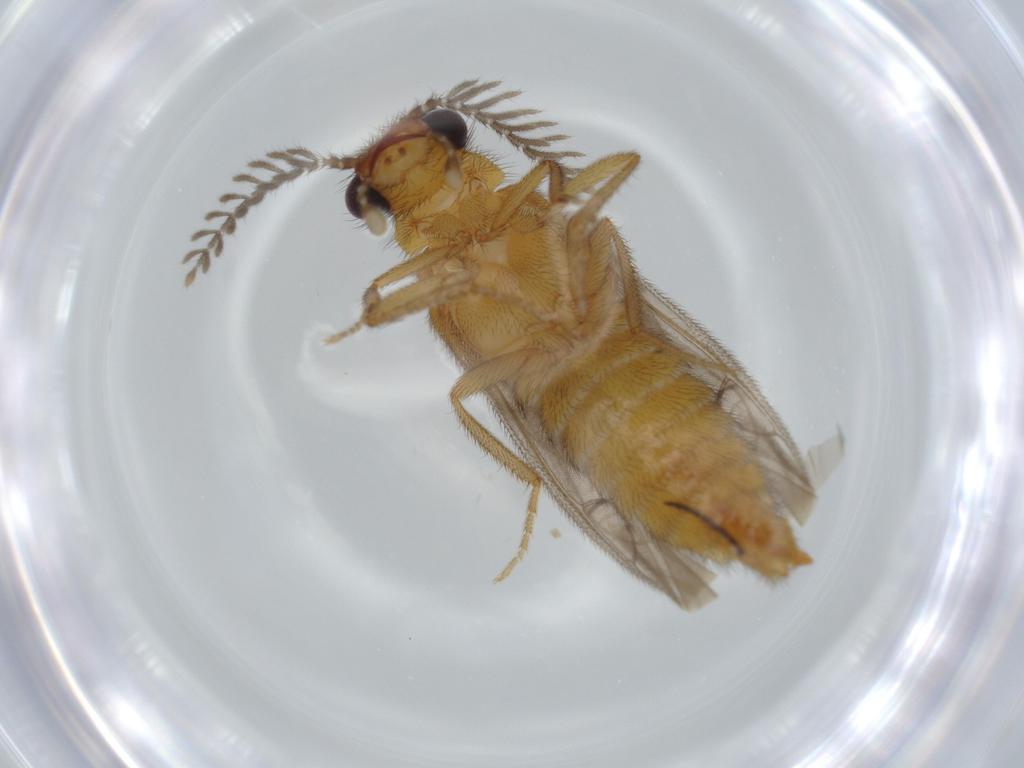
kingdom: Animalia
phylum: Arthropoda
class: Insecta
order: Coleoptera
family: Phengodidae
